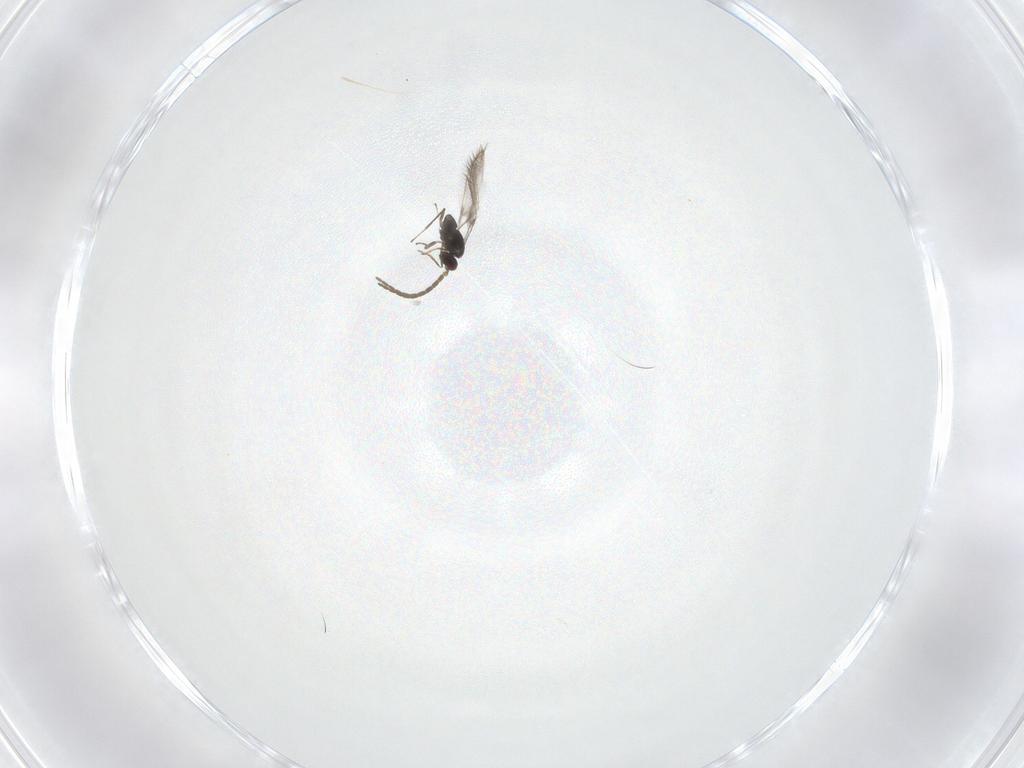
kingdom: Animalia
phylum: Arthropoda
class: Insecta
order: Hymenoptera
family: Mymaridae
